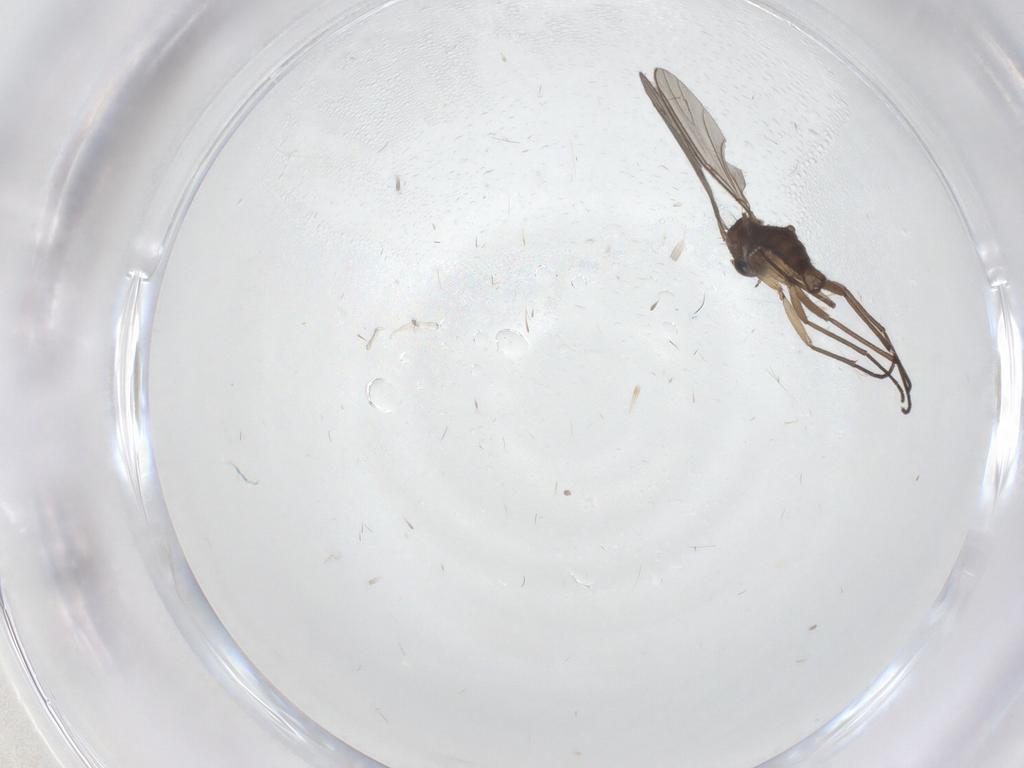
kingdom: Animalia
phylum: Arthropoda
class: Insecta
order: Diptera
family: Sciaridae
